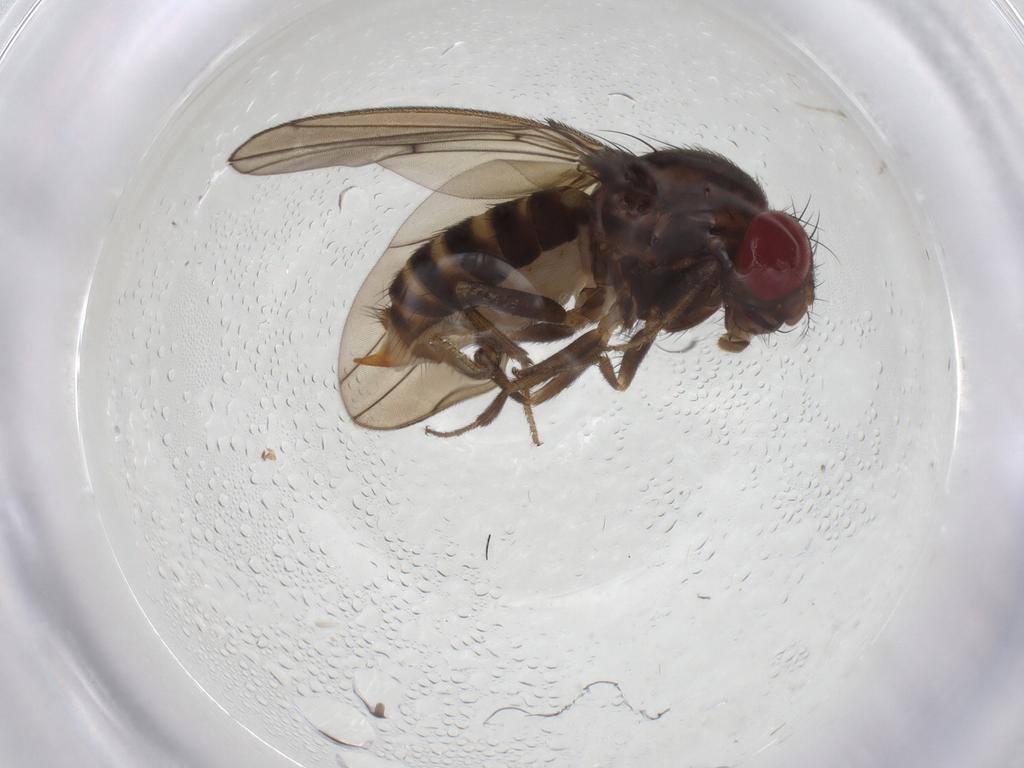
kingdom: Animalia
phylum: Arthropoda
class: Insecta
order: Diptera
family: Drosophilidae
